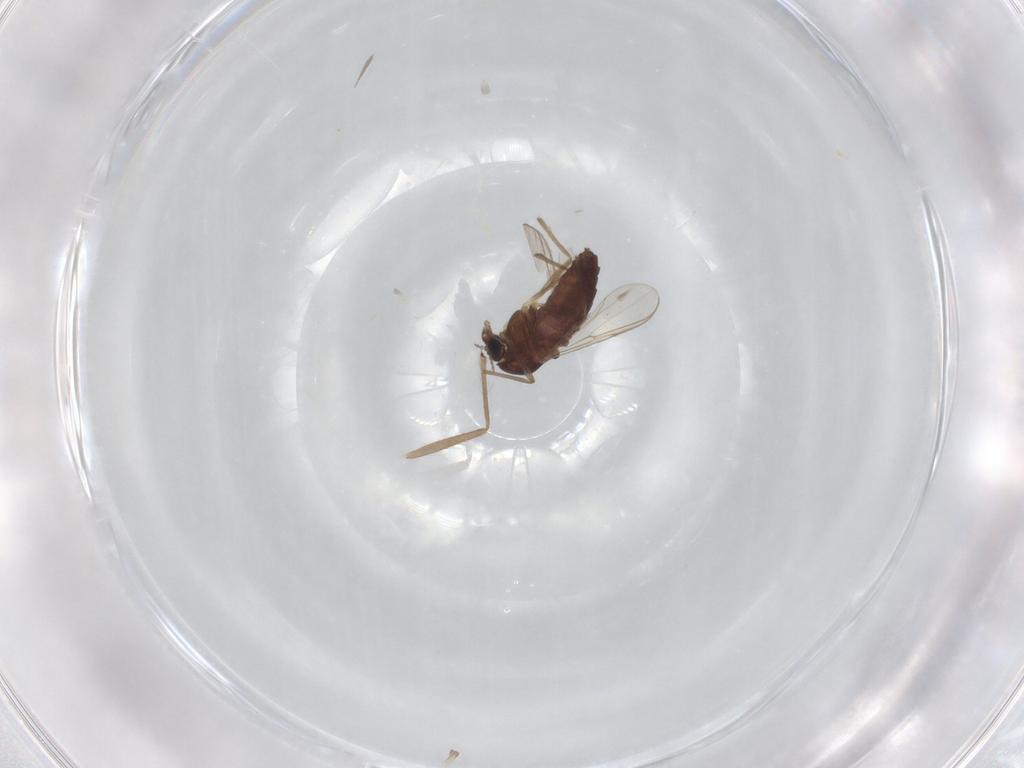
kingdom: Animalia
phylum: Arthropoda
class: Insecta
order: Diptera
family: Chironomidae
